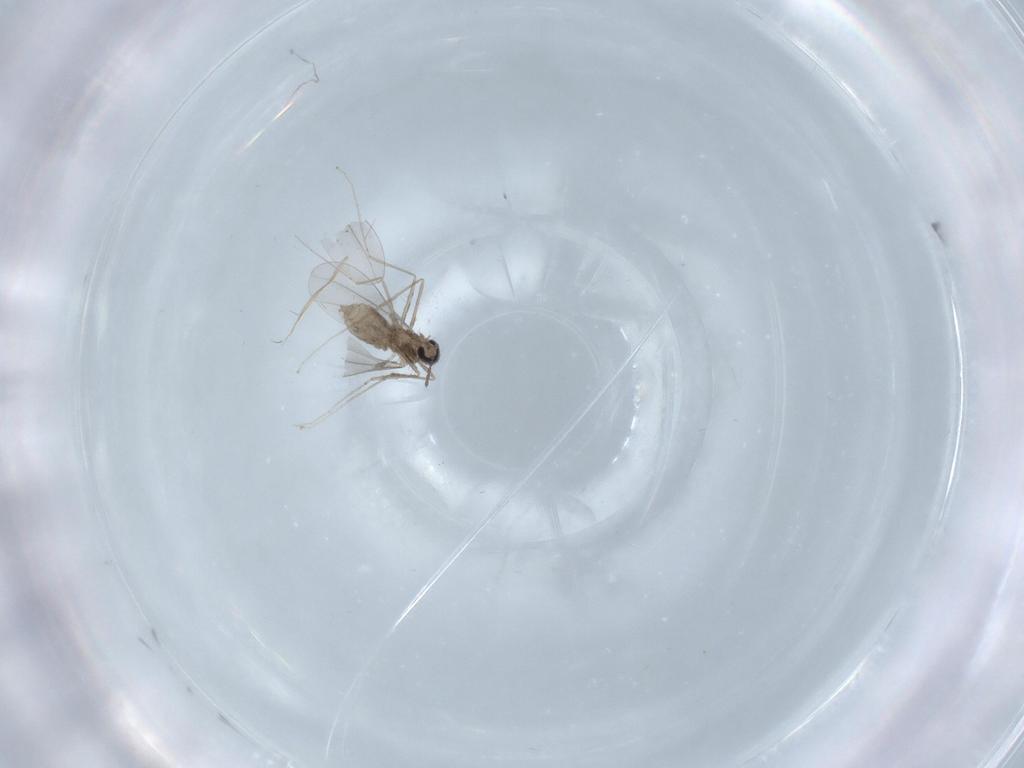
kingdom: Animalia
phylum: Arthropoda
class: Insecta
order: Diptera
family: Cecidomyiidae
